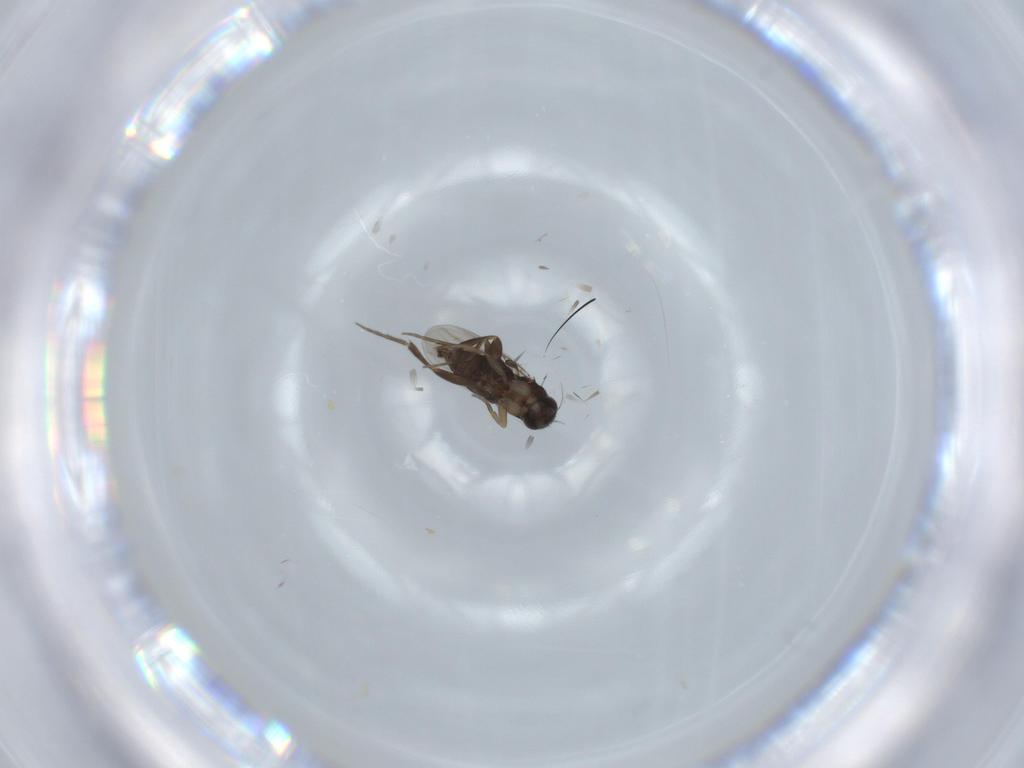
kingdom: Animalia
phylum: Arthropoda
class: Insecta
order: Diptera
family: Phoridae
